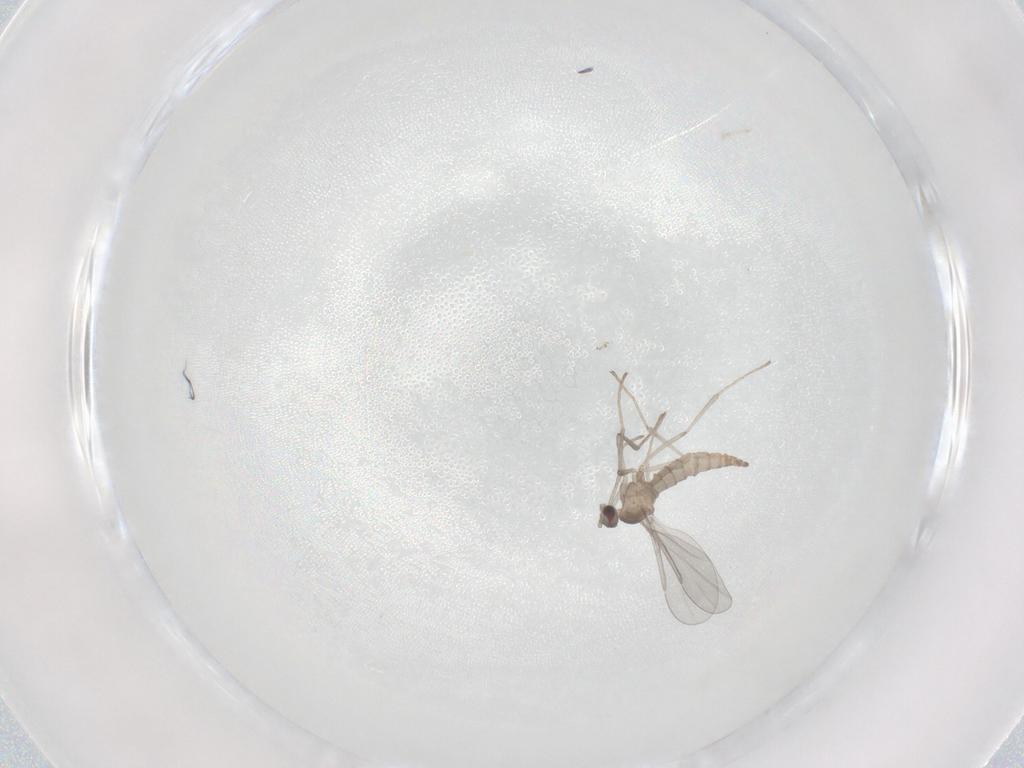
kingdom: Animalia
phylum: Arthropoda
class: Insecta
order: Diptera
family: Cecidomyiidae
